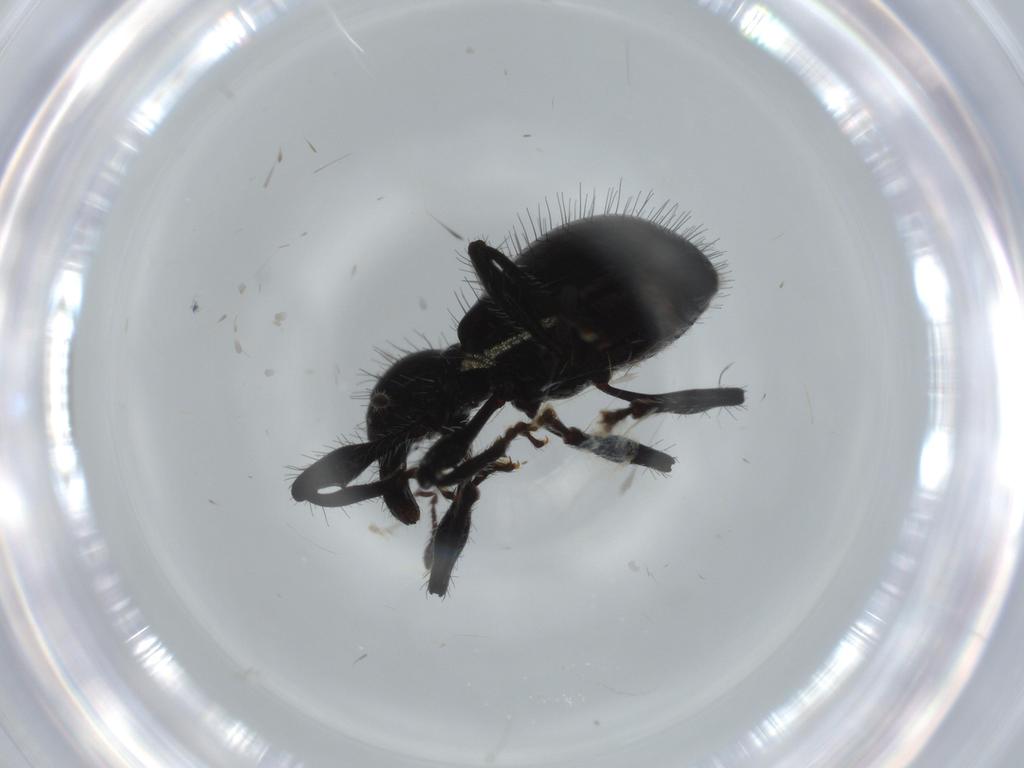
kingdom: Animalia
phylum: Arthropoda
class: Insecta
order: Coleoptera
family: Curculionidae
